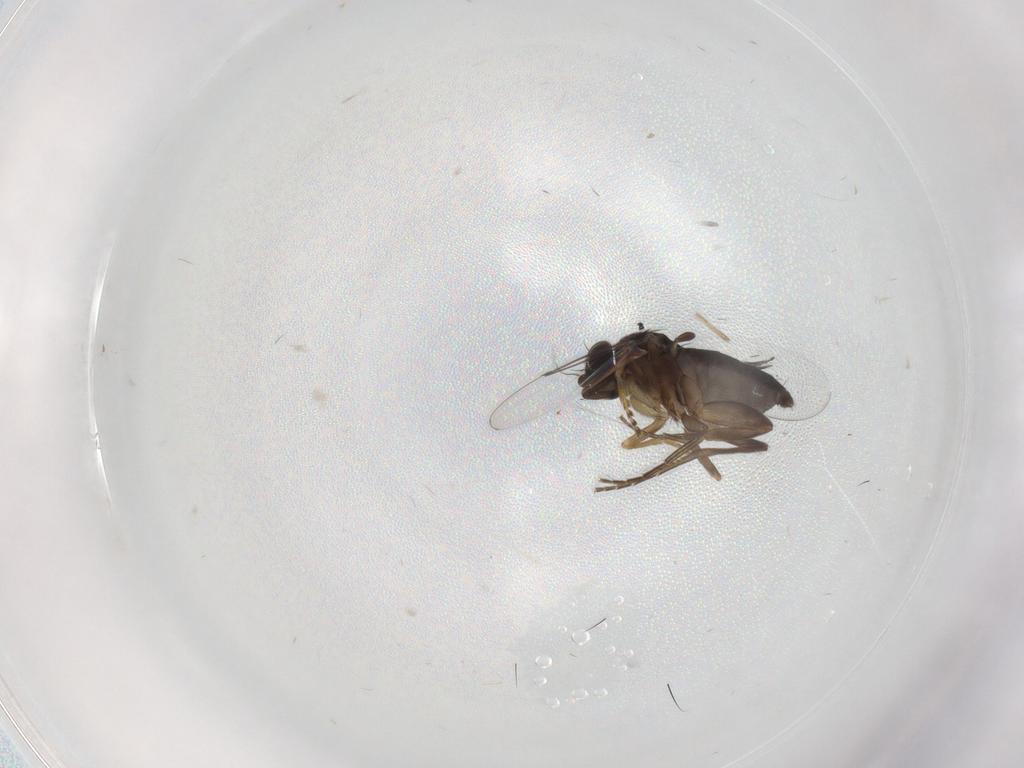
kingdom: Animalia
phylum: Arthropoda
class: Insecta
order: Diptera
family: Phoridae
